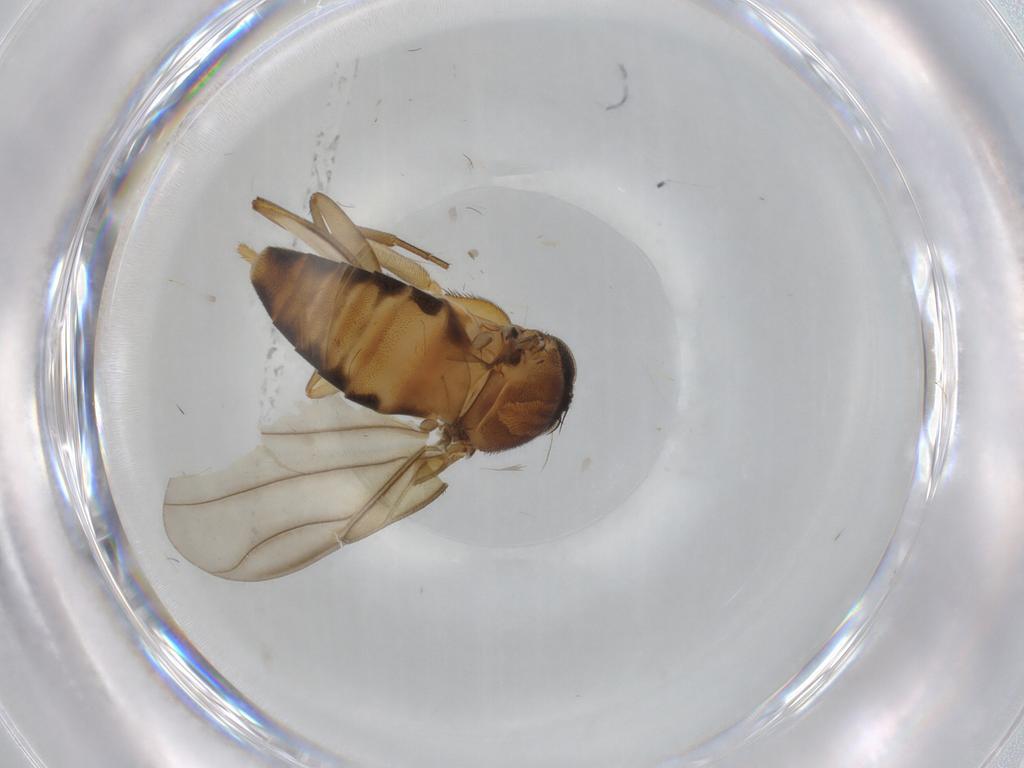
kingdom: Animalia
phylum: Arthropoda
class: Insecta
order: Diptera
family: Phoridae
